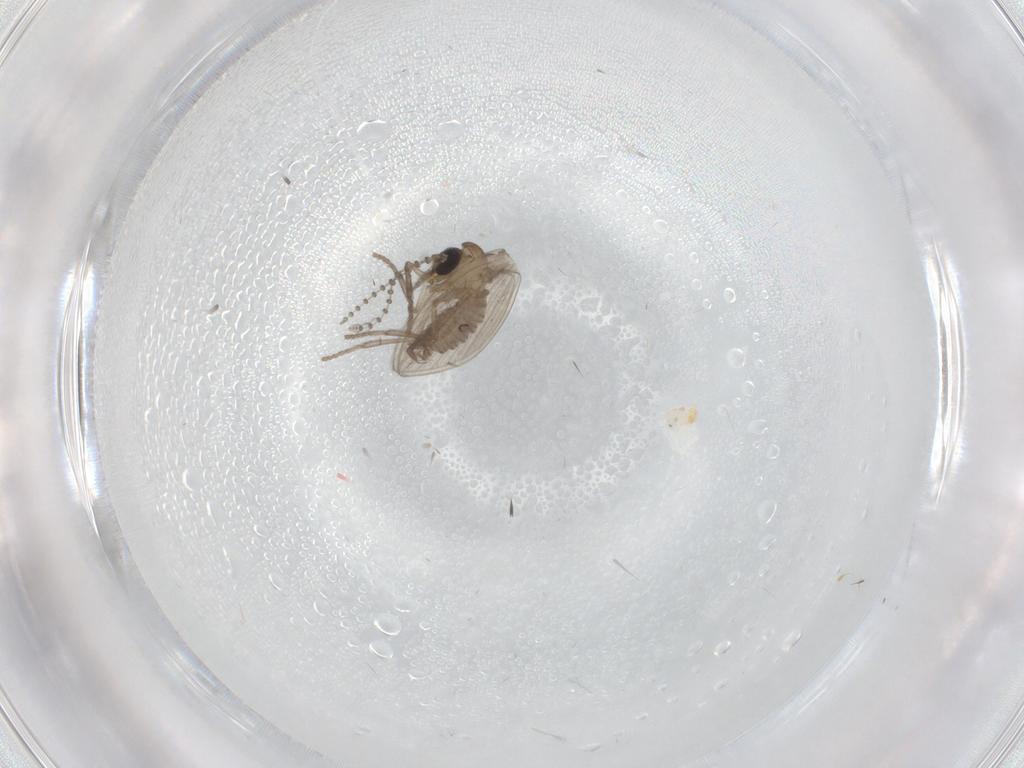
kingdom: Animalia
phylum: Arthropoda
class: Insecta
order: Diptera
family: Psychodidae
